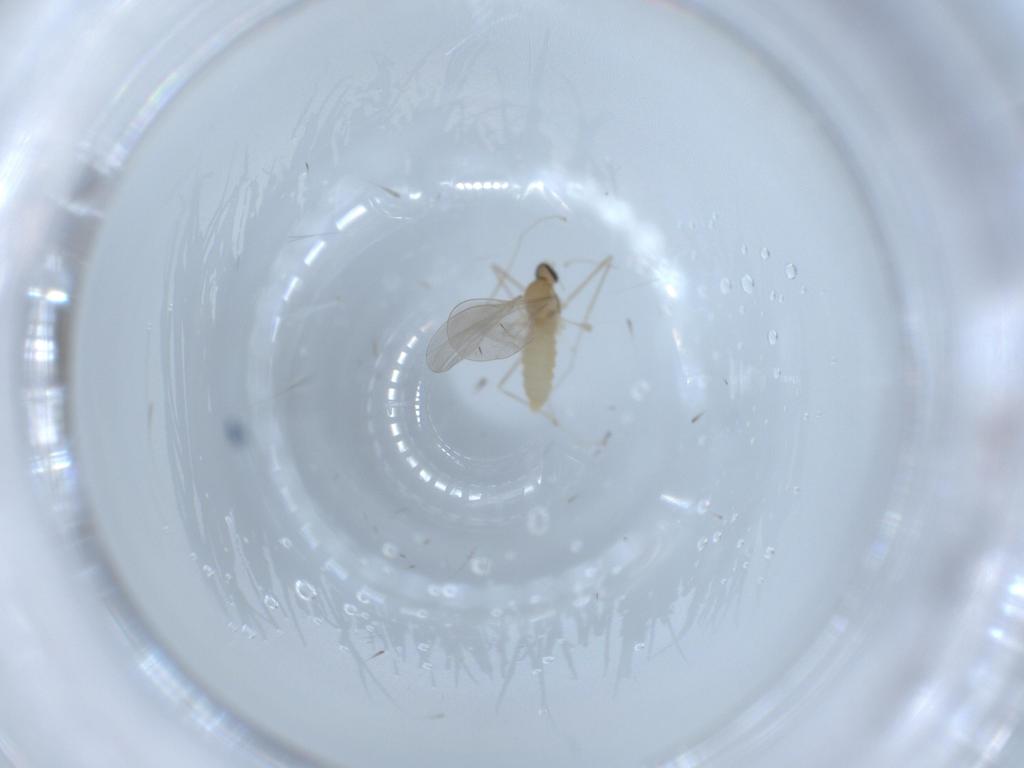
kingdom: Animalia
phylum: Arthropoda
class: Insecta
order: Diptera
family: Cecidomyiidae
